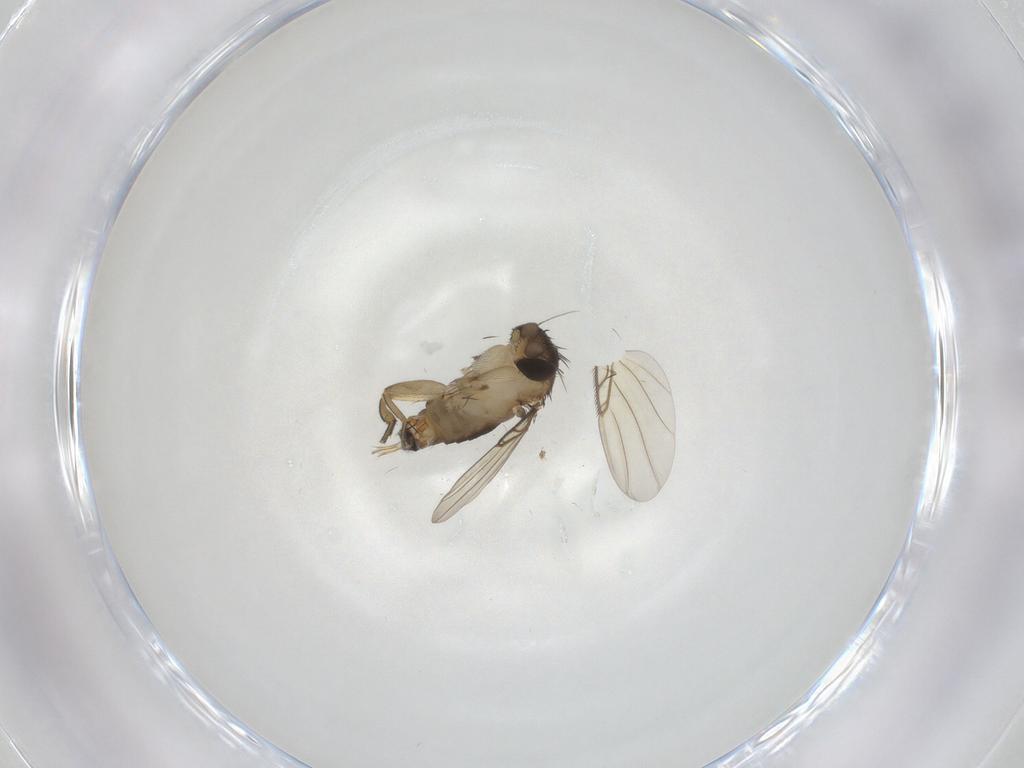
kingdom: Animalia
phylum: Arthropoda
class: Insecta
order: Diptera
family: Phoridae
